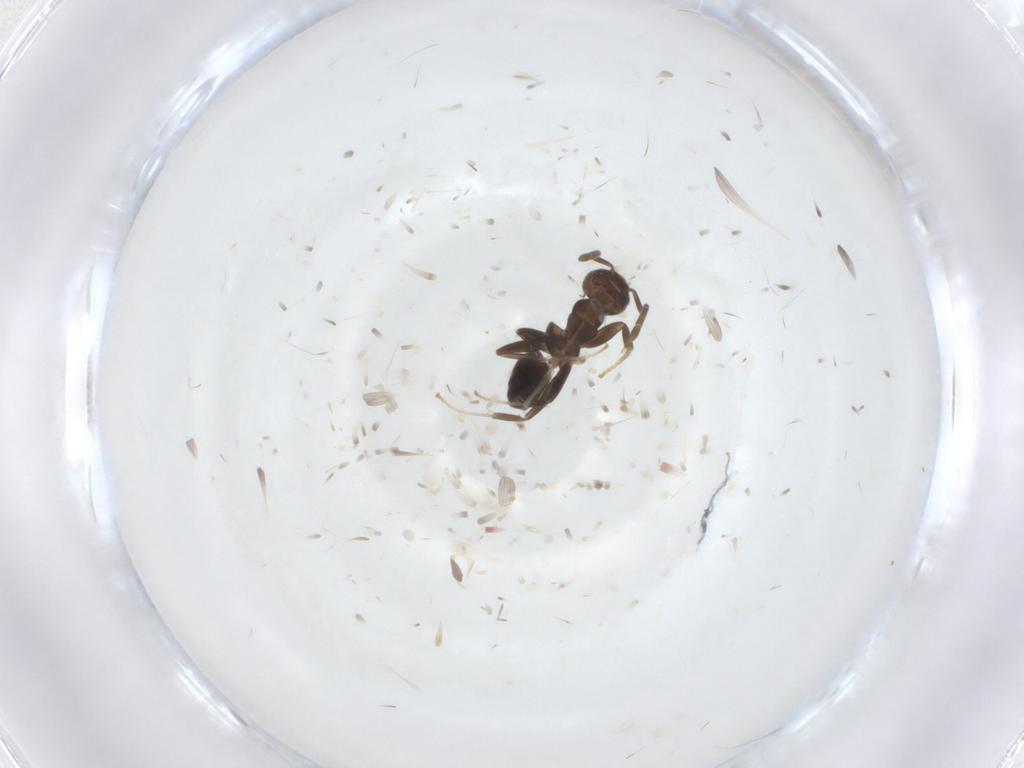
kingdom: Animalia
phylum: Arthropoda
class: Insecta
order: Hymenoptera
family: Formicidae
